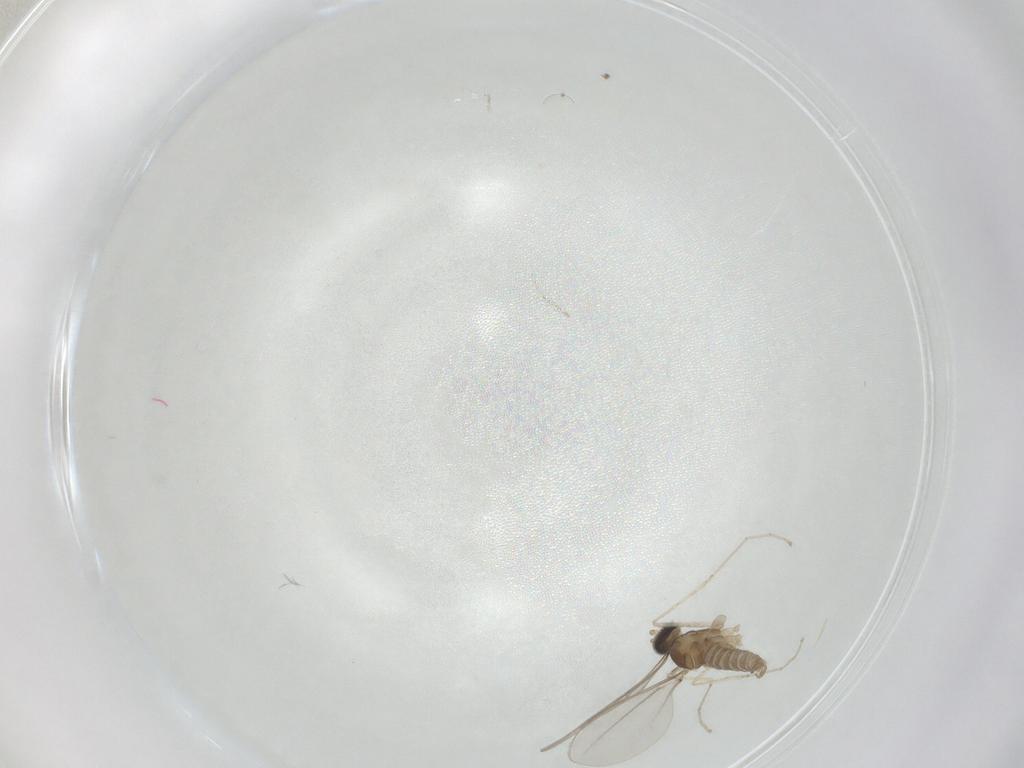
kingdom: Animalia
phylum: Arthropoda
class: Insecta
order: Diptera
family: Cecidomyiidae
